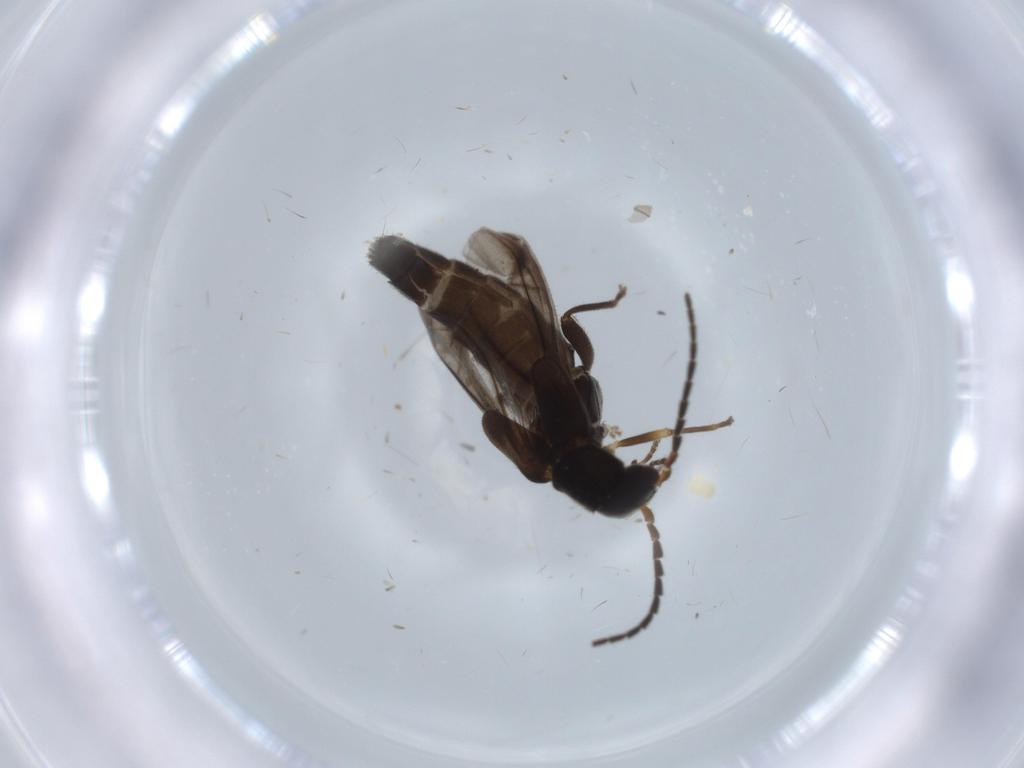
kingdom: Animalia
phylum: Arthropoda
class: Insecta
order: Coleoptera
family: Cantharidae
